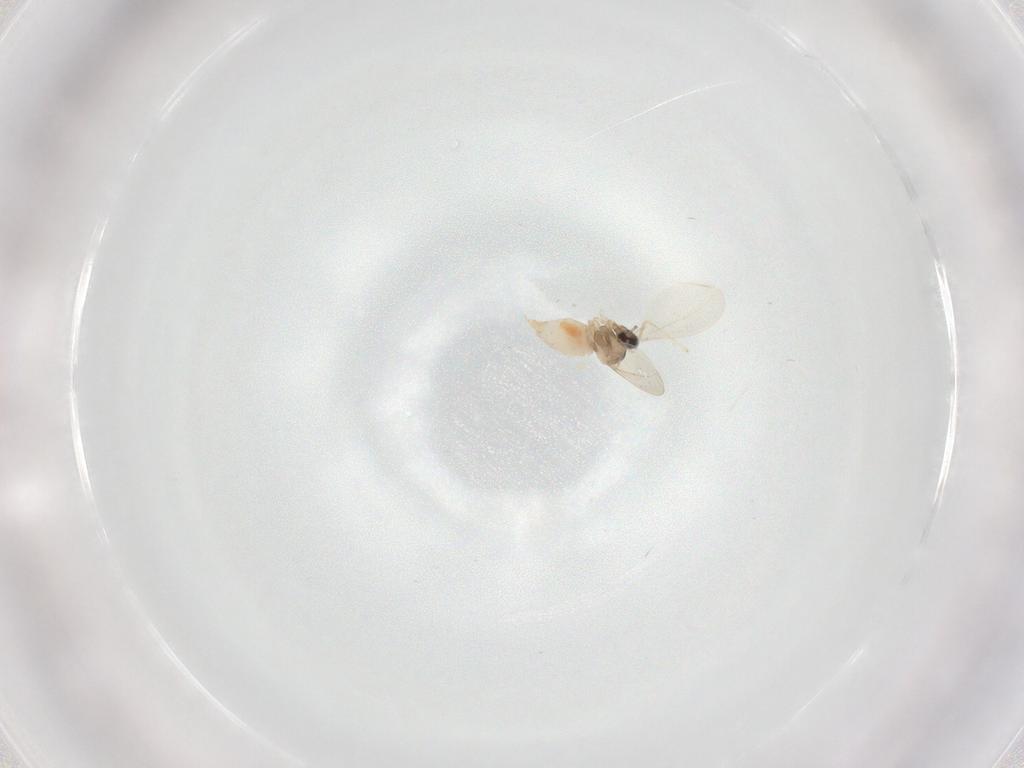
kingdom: Animalia
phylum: Arthropoda
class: Insecta
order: Diptera
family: Cecidomyiidae
